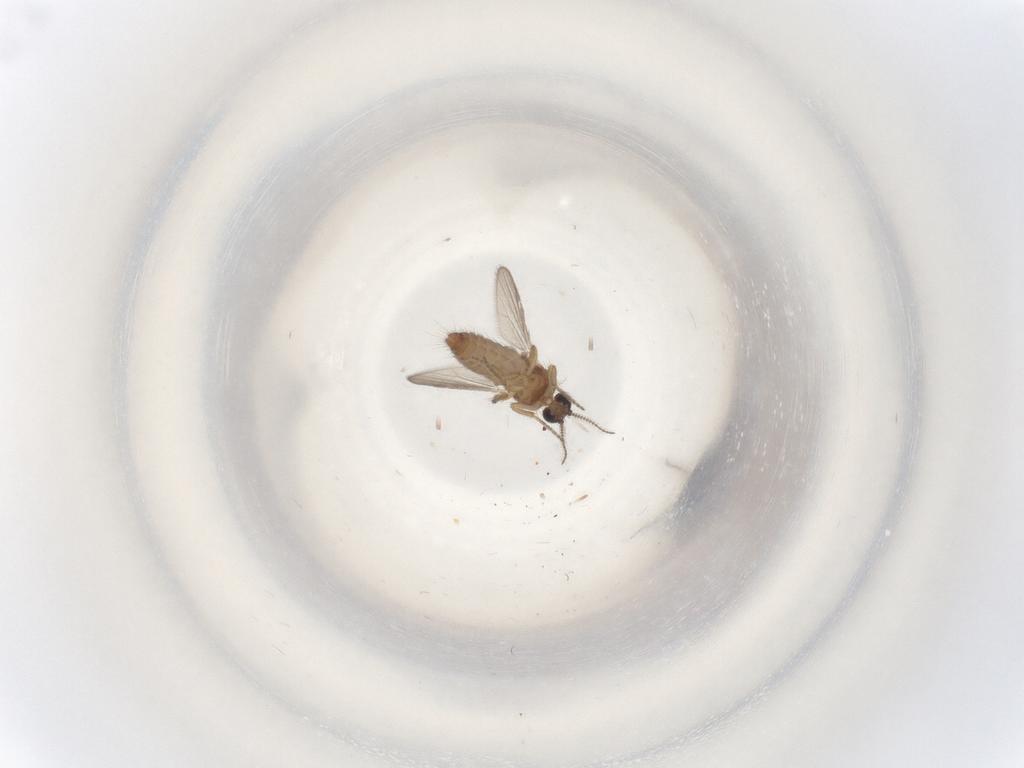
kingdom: Animalia
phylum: Arthropoda
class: Insecta
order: Diptera
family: Ceratopogonidae
